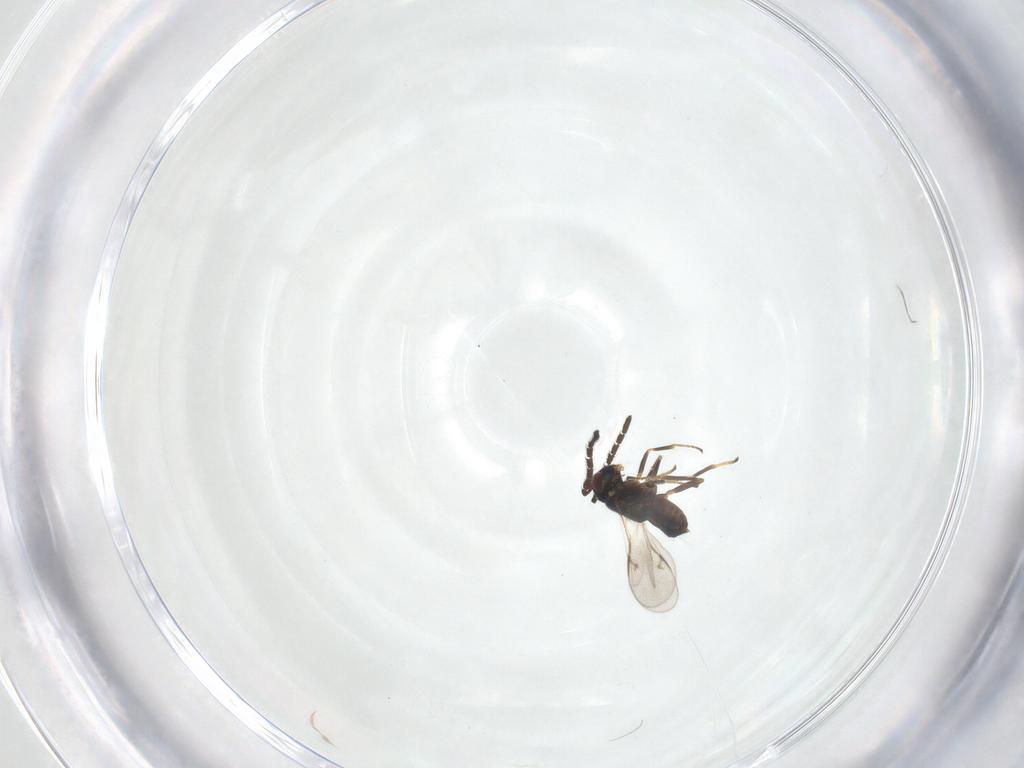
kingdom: Animalia
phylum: Arthropoda
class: Insecta
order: Hymenoptera
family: Encyrtidae
